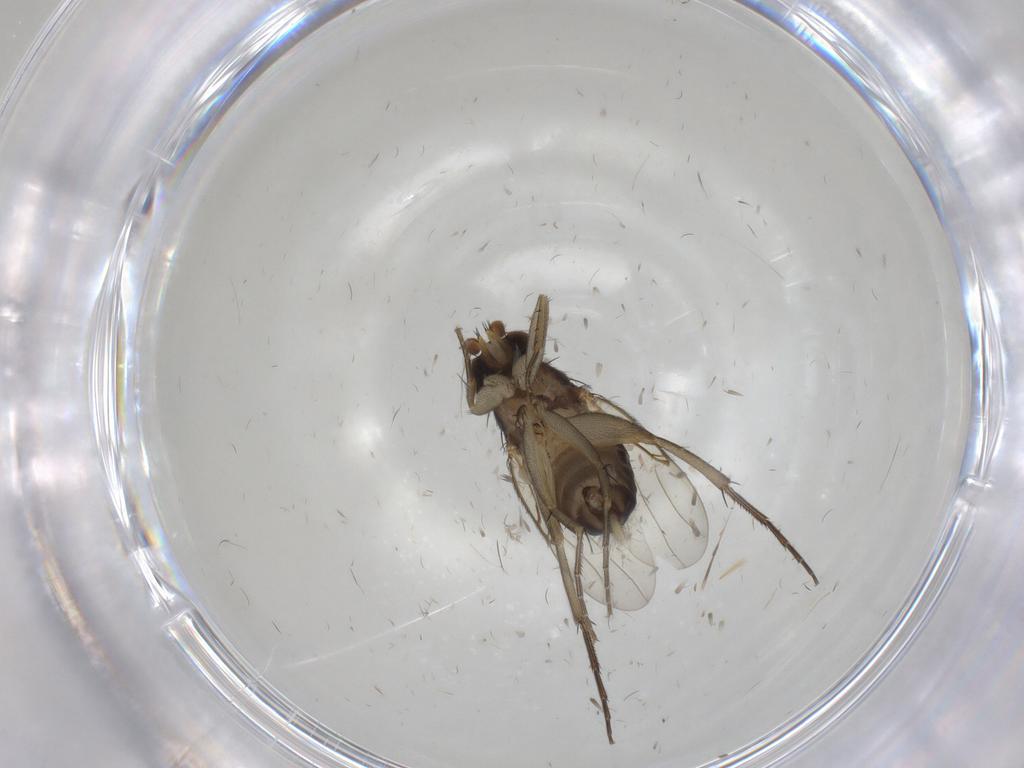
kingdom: Animalia
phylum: Arthropoda
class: Insecta
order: Diptera
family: Phoridae
